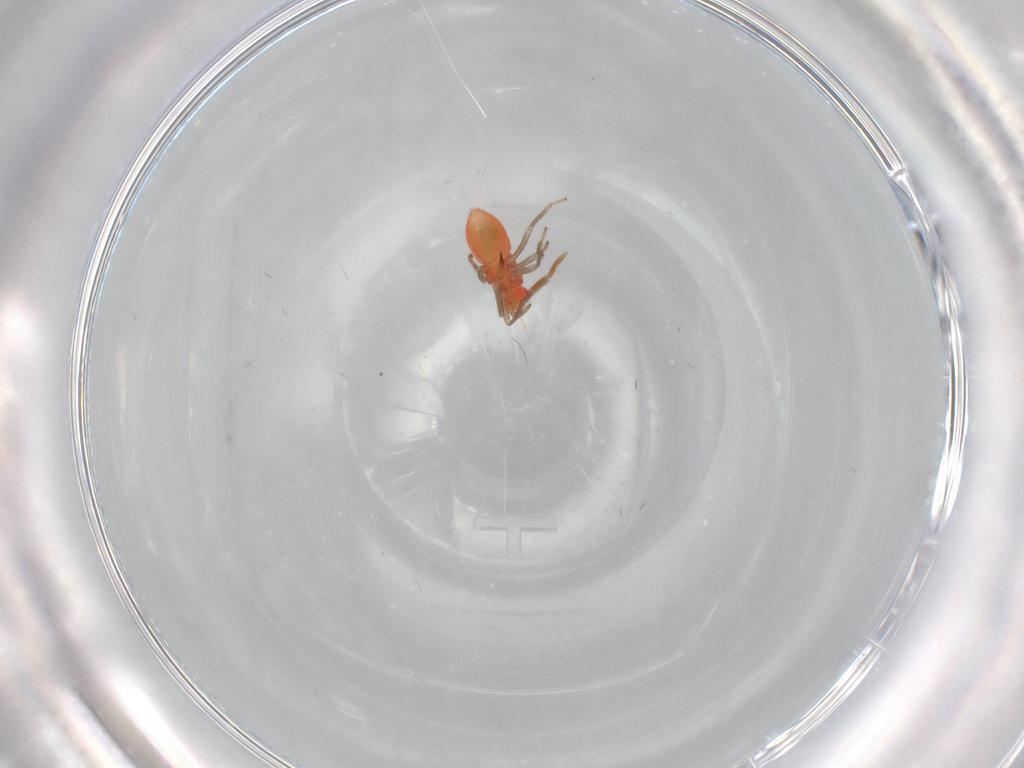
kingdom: Animalia
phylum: Arthropoda
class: Insecta
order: Hemiptera
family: Miridae
